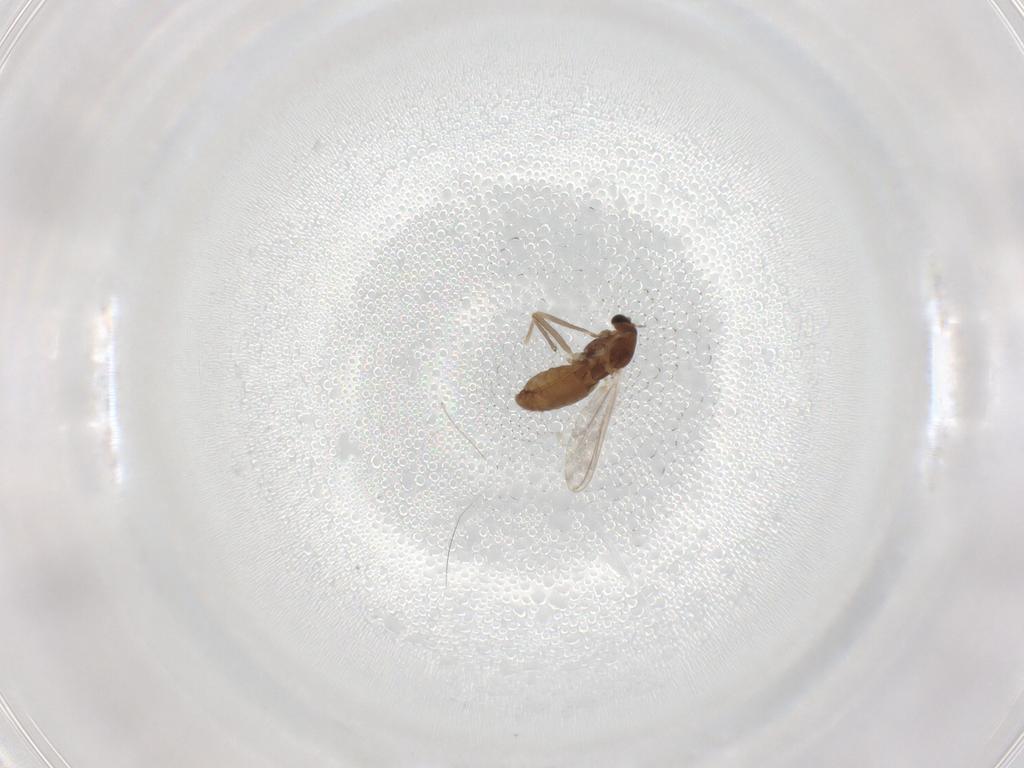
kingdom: Animalia
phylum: Arthropoda
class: Insecta
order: Diptera
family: Chironomidae
